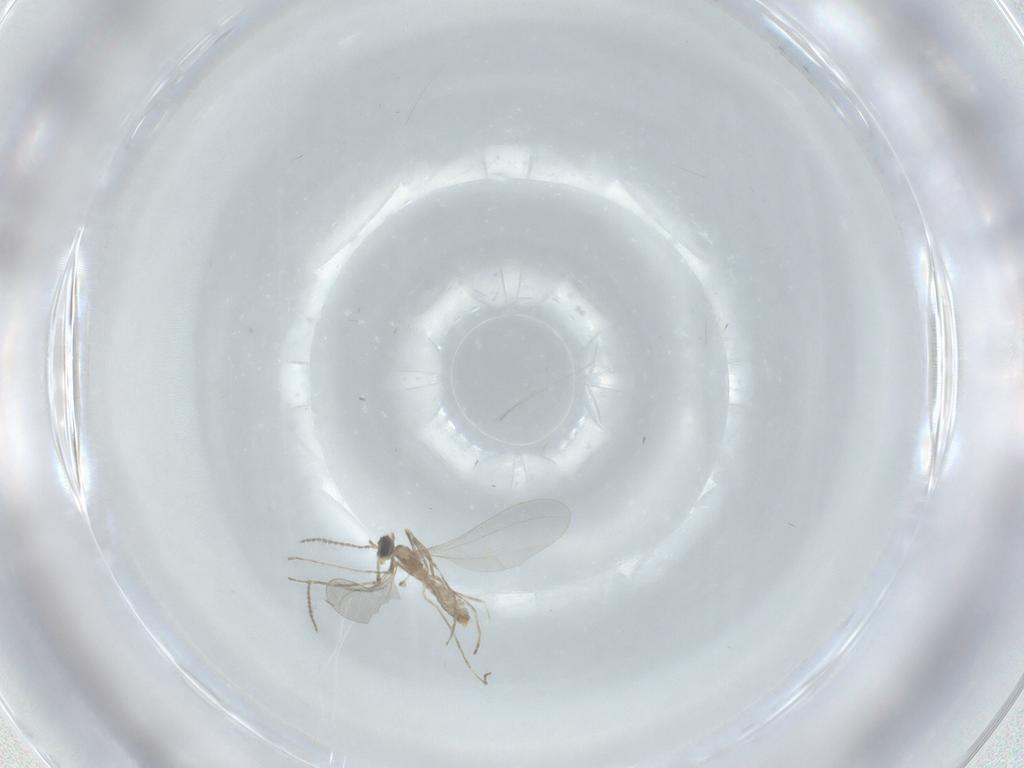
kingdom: Animalia
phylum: Arthropoda
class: Insecta
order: Diptera
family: Cecidomyiidae
